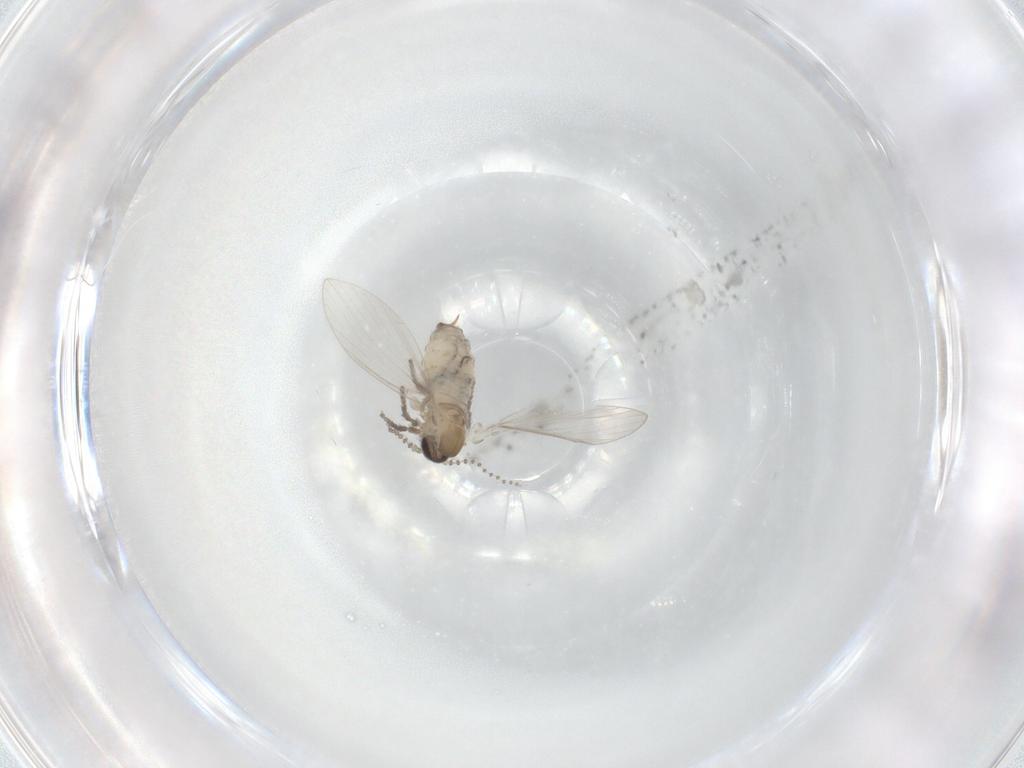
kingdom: Animalia
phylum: Arthropoda
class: Insecta
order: Diptera
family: Psychodidae
